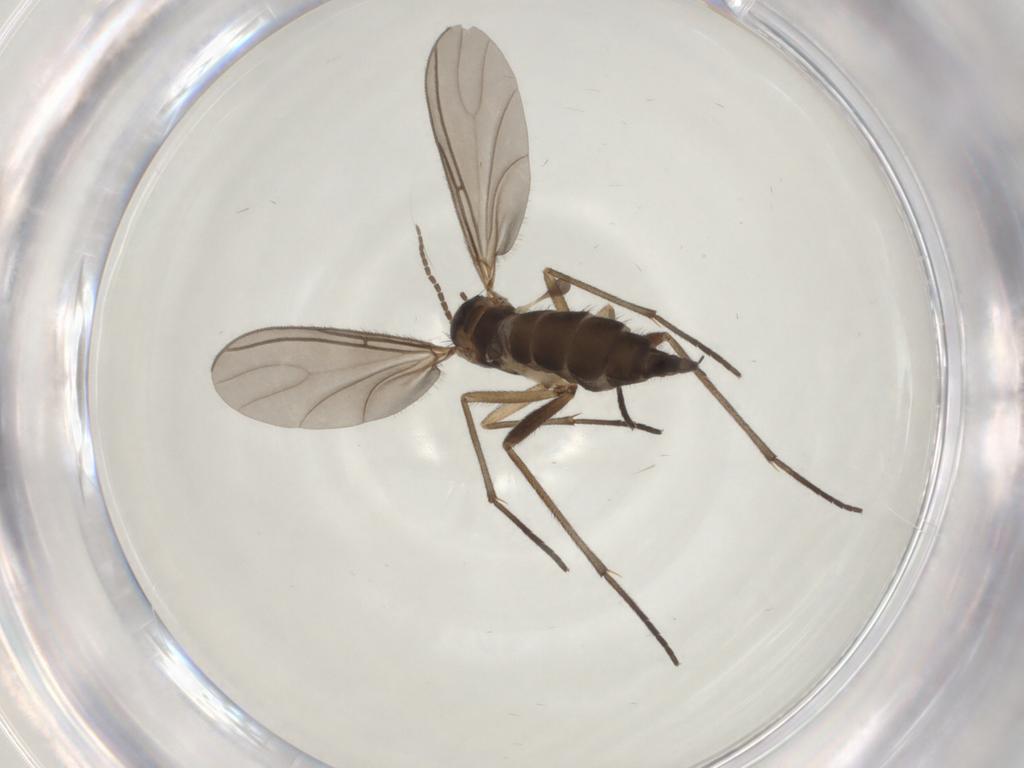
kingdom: Animalia
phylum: Arthropoda
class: Insecta
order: Diptera
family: Sciaridae
